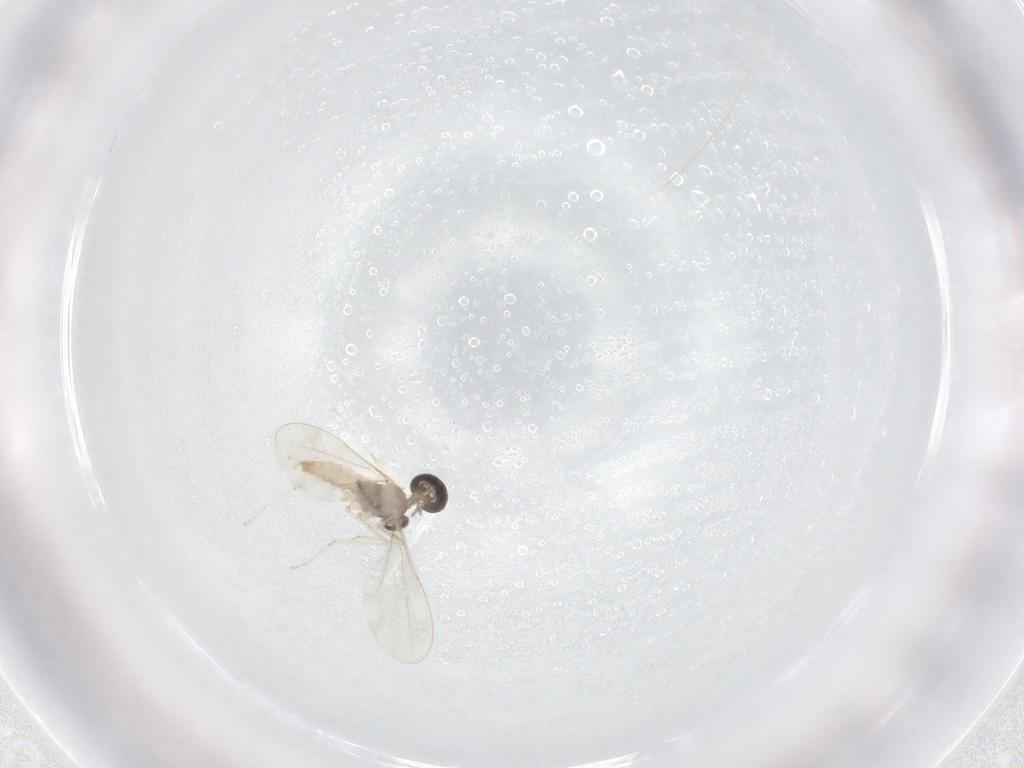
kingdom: Animalia
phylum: Arthropoda
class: Insecta
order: Diptera
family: Ceratopogonidae
